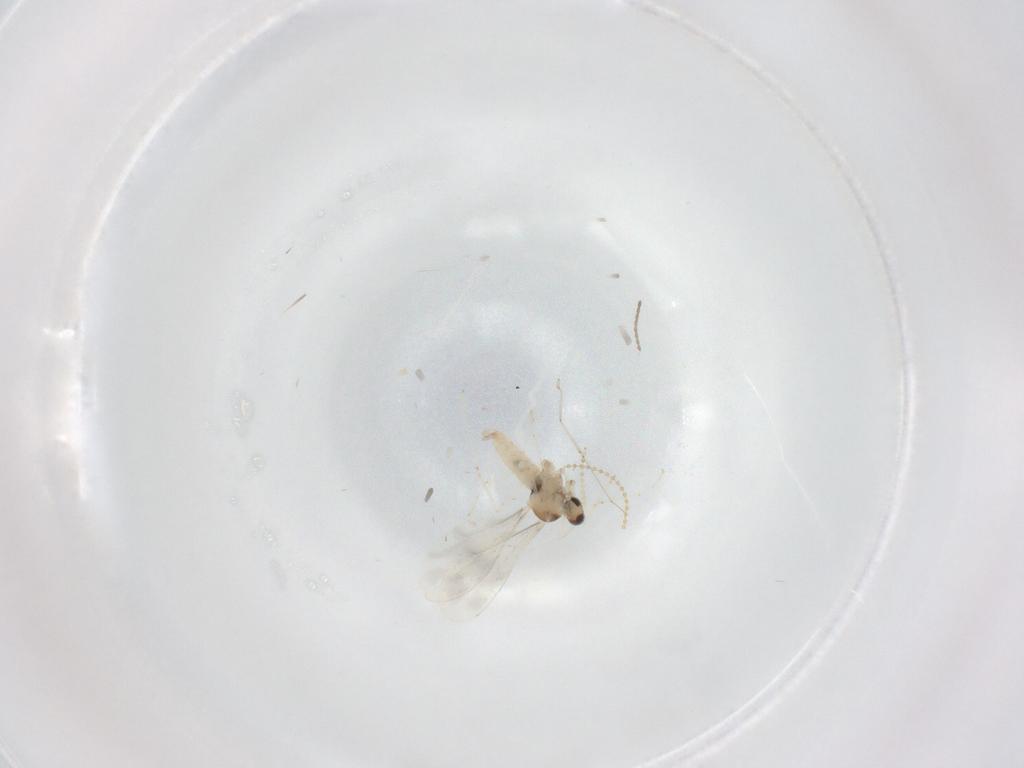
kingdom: Animalia
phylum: Arthropoda
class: Insecta
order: Diptera
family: Cecidomyiidae
